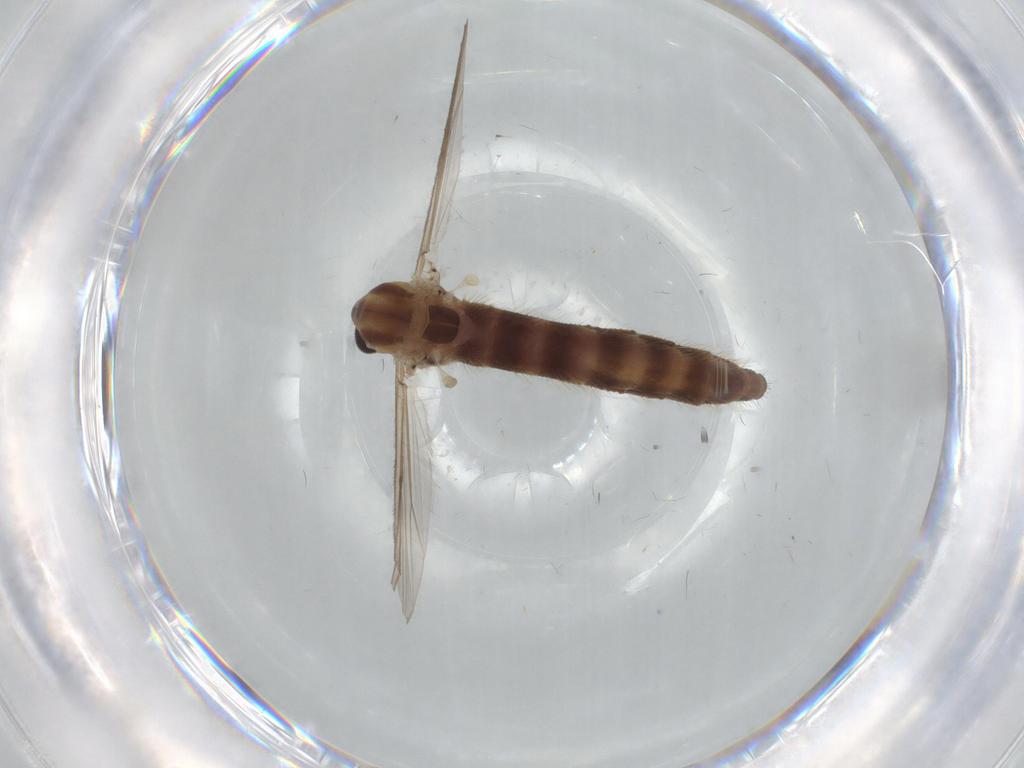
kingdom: Animalia
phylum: Arthropoda
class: Insecta
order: Diptera
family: Chironomidae
